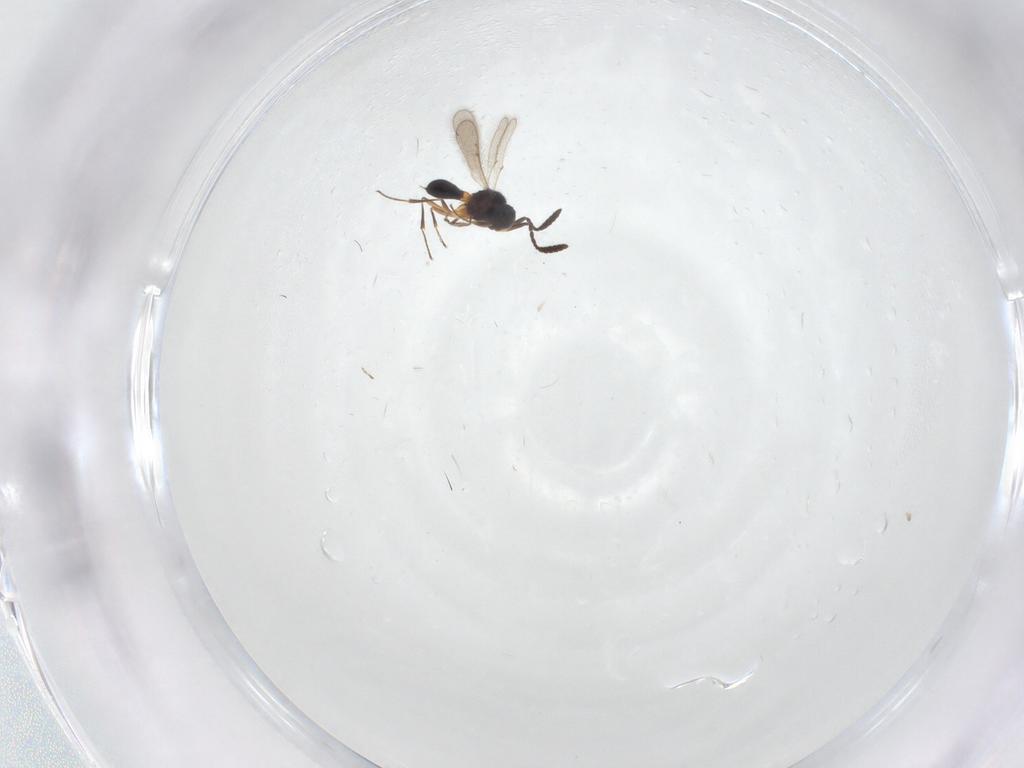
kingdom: Animalia
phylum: Arthropoda
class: Insecta
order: Hymenoptera
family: Scelionidae
